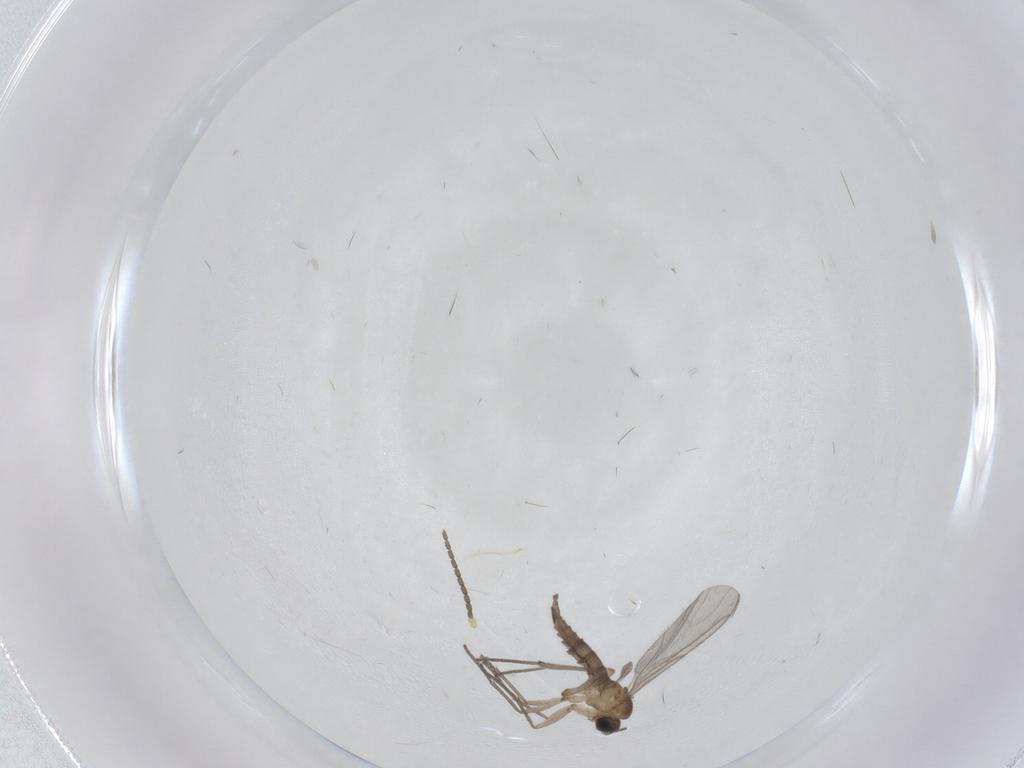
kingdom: Animalia
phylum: Arthropoda
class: Insecta
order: Diptera
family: Sciaridae
